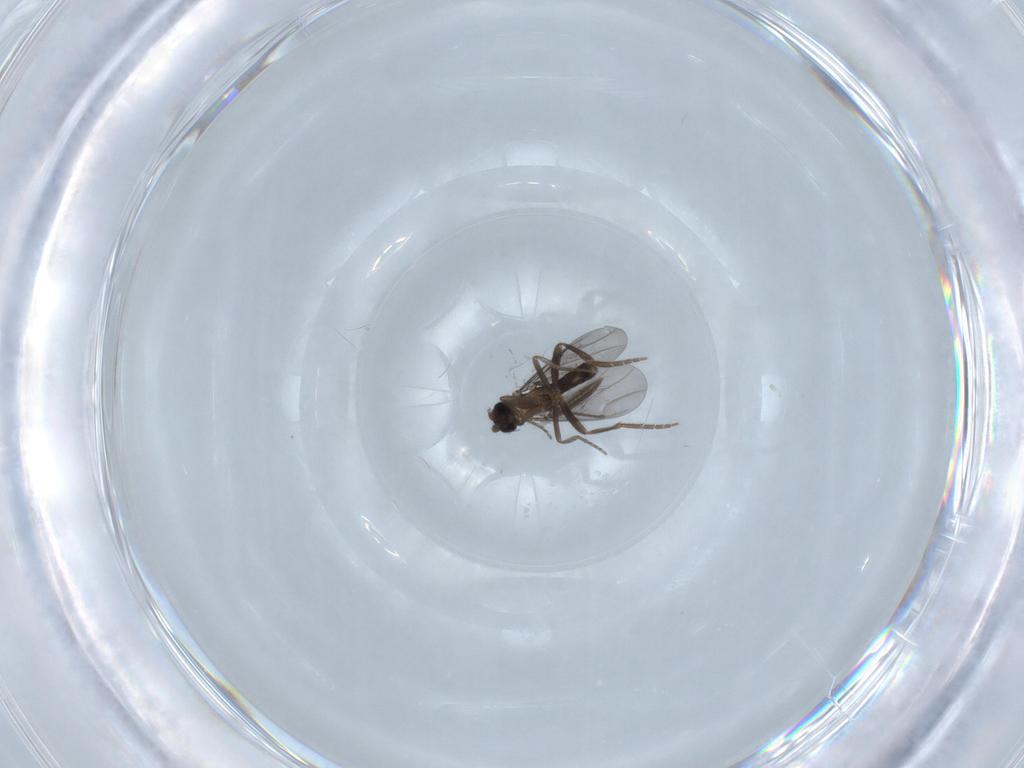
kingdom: Animalia
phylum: Arthropoda
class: Insecta
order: Diptera
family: Ceratopogonidae
